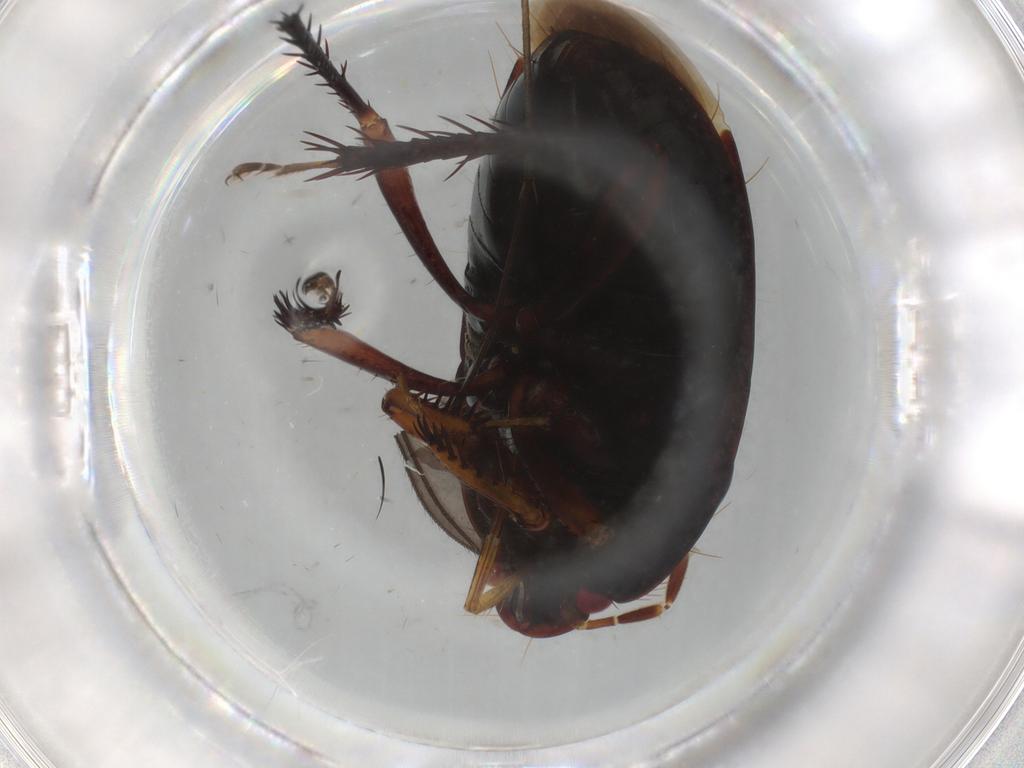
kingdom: Animalia
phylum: Arthropoda
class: Insecta
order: Hemiptera
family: Cydnidae
